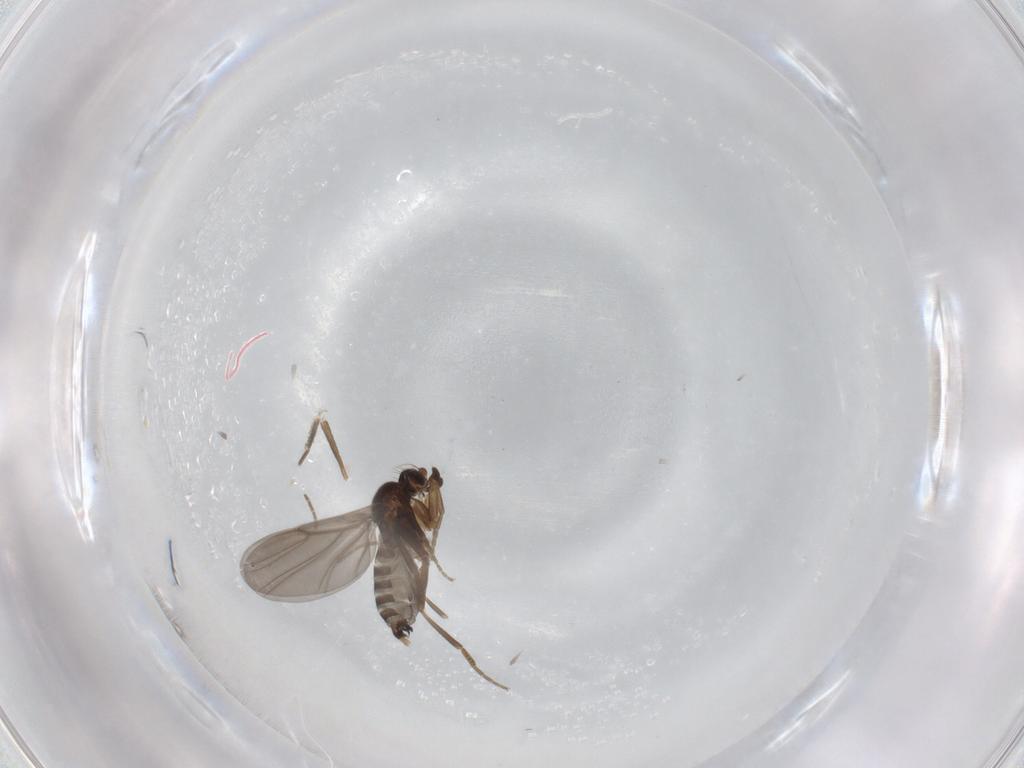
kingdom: Animalia
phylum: Arthropoda
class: Insecta
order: Diptera
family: Phoridae
